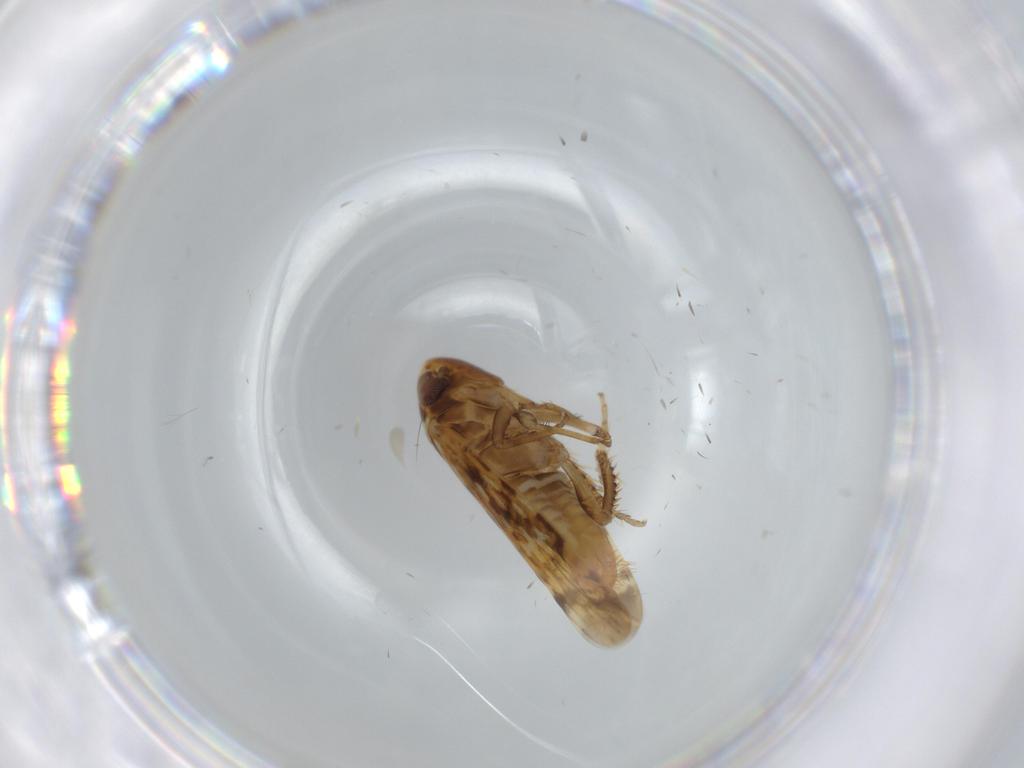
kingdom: Animalia
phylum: Arthropoda
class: Insecta
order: Hemiptera
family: Cicadellidae
